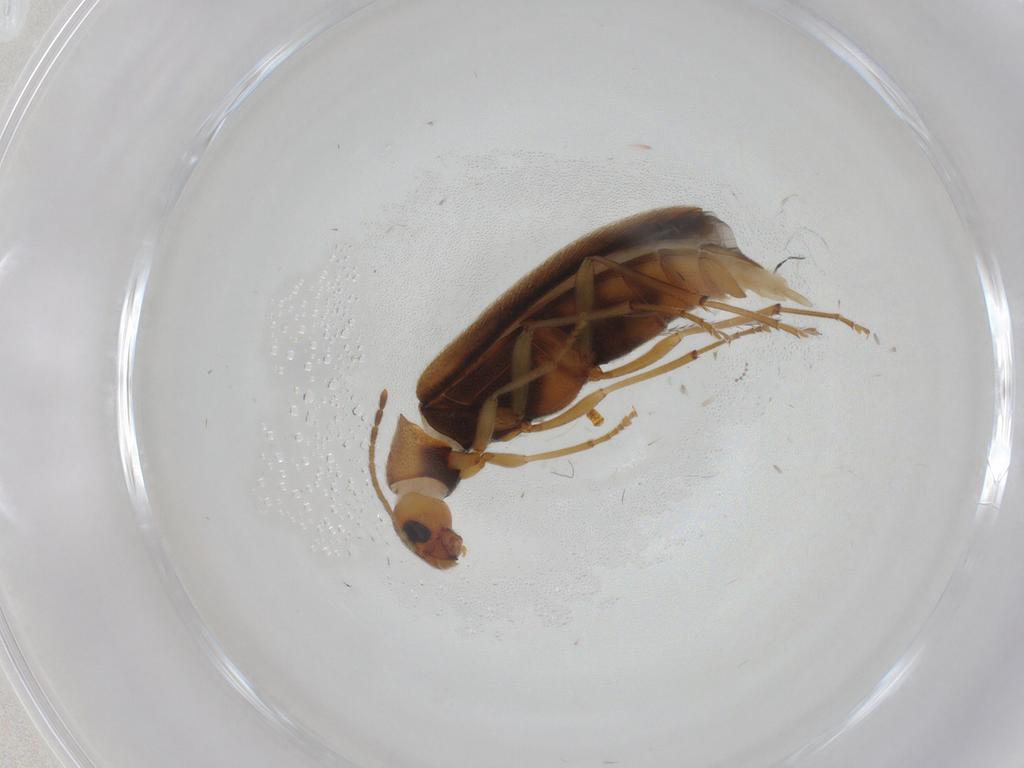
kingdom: Animalia
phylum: Arthropoda
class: Insecta
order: Coleoptera
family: Melandryidae
